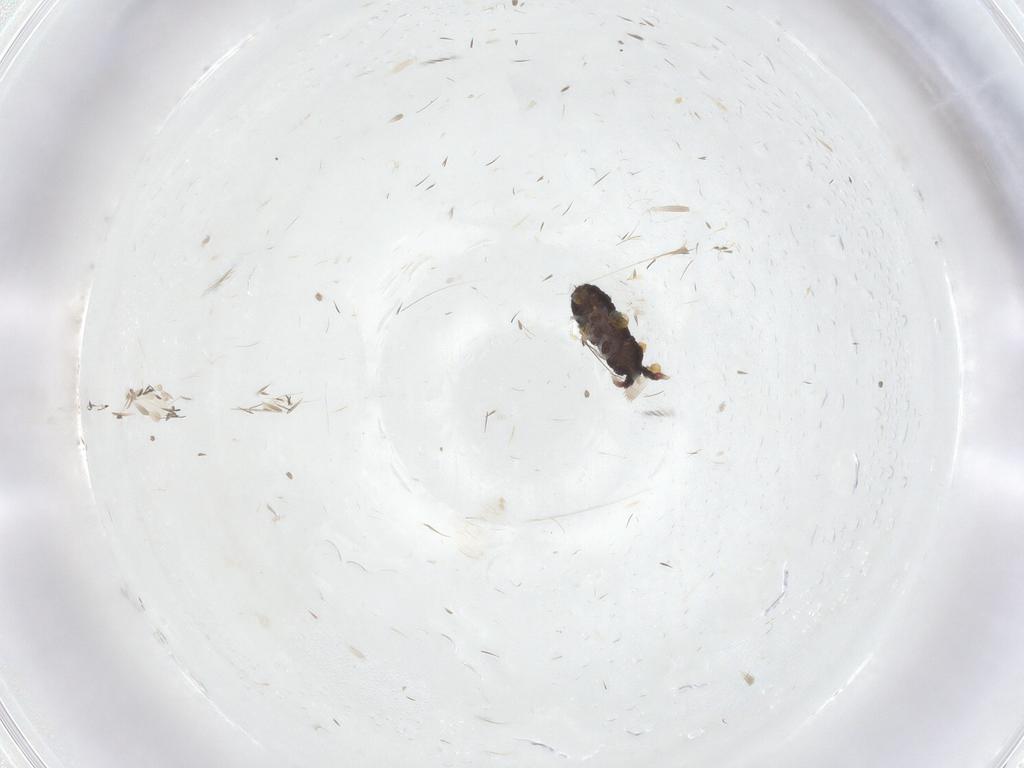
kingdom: Animalia
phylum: Arthropoda
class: Collembola
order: Poduromorpha
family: Neanuridae
